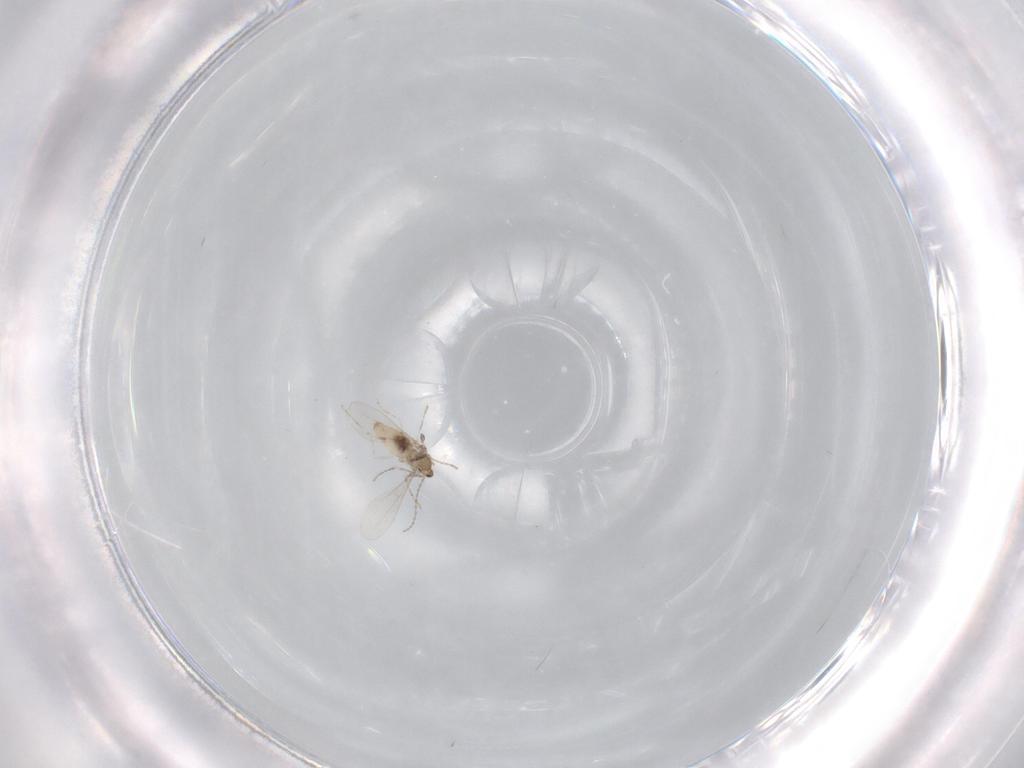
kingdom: Animalia
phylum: Arthropoda
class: Insecta
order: Diptera
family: Cecidomyiidae
